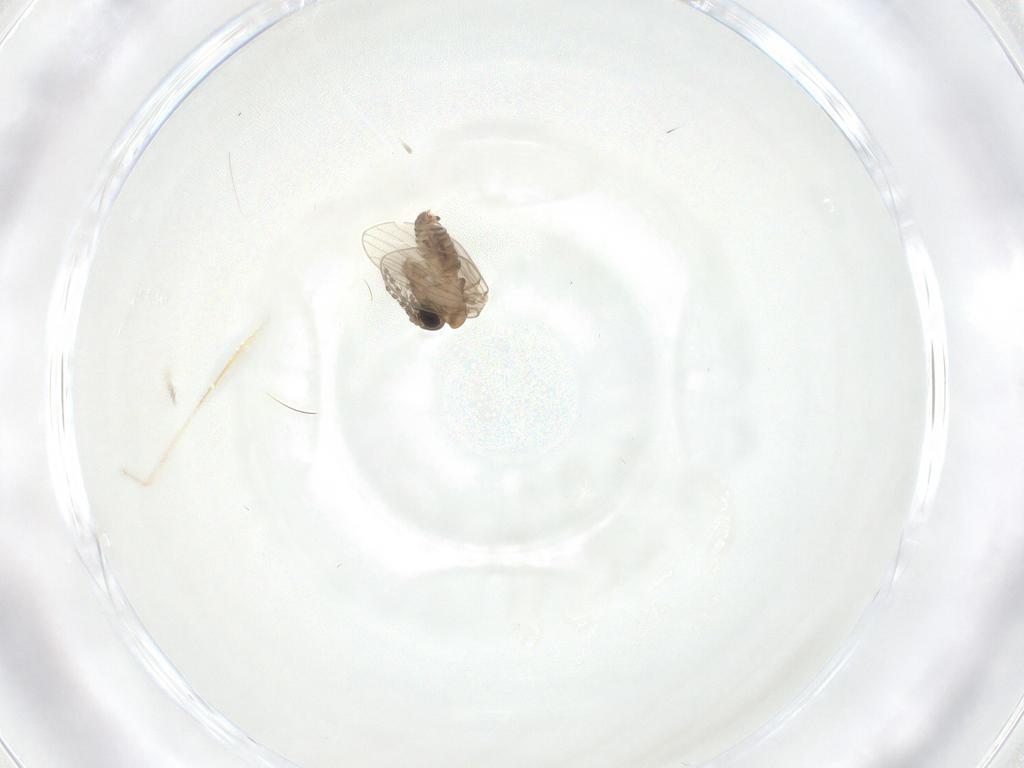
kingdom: Animalia
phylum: Arthropoda
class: Insecta
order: Diptera
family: Psychodidae
